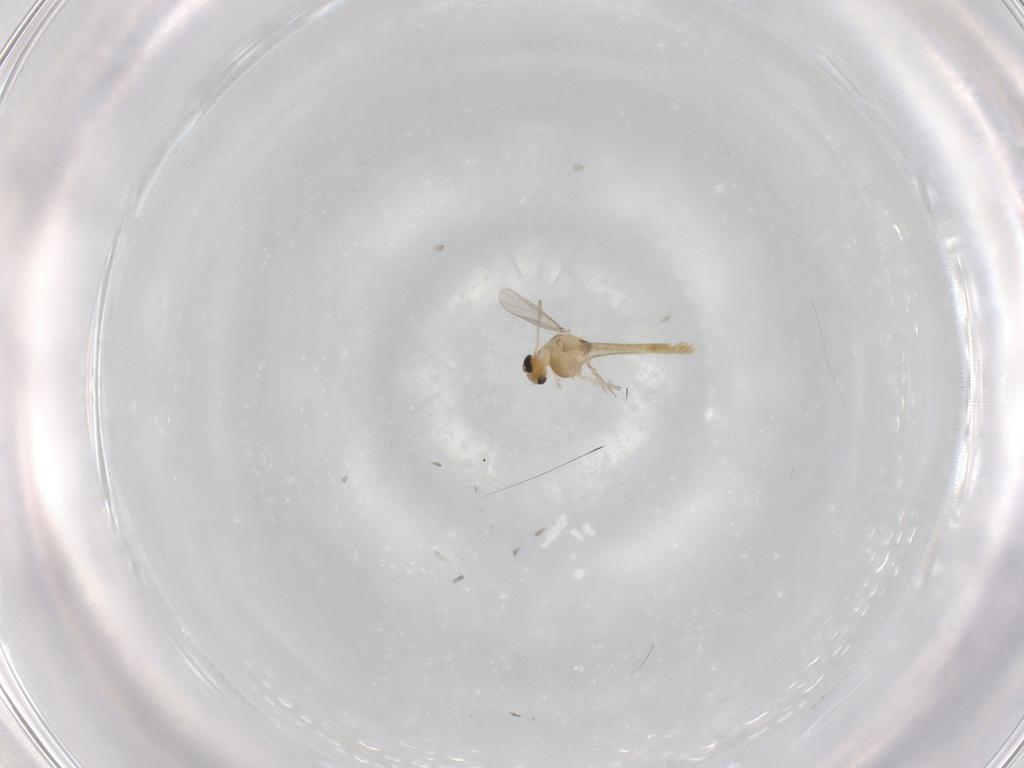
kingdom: Animalia
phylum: Arthropoda
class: Insecta
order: Diptera
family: Chironomidae
